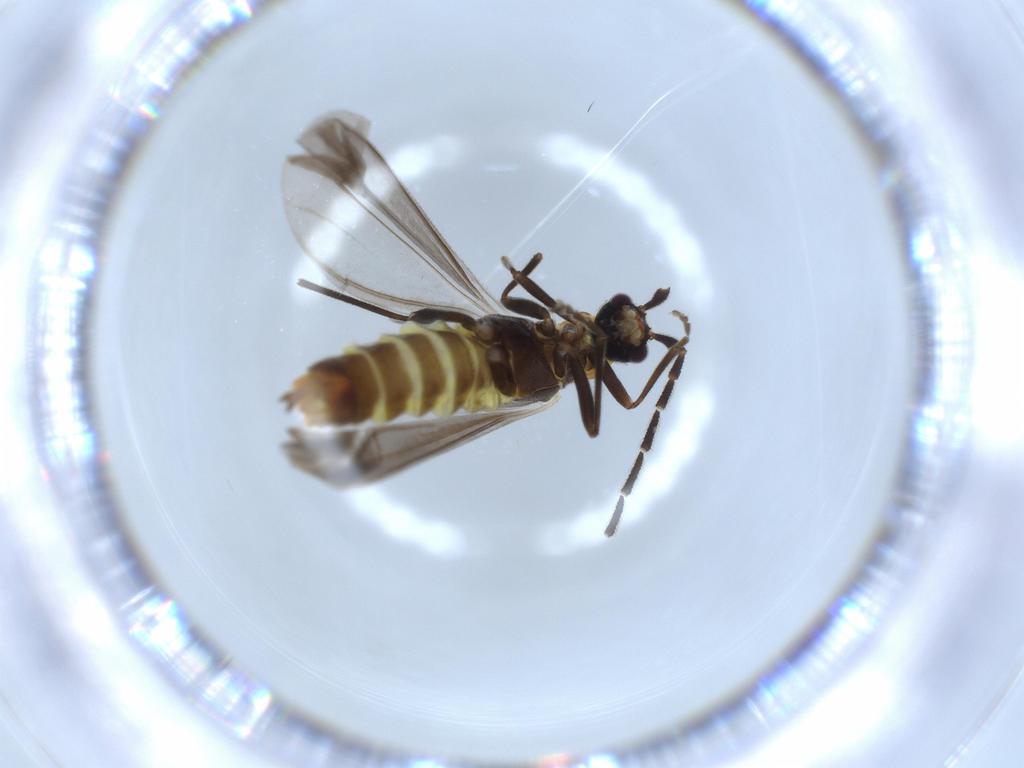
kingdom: Animalia
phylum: Arthropoda
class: Insecta
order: Coleoptera
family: Cantharidae
